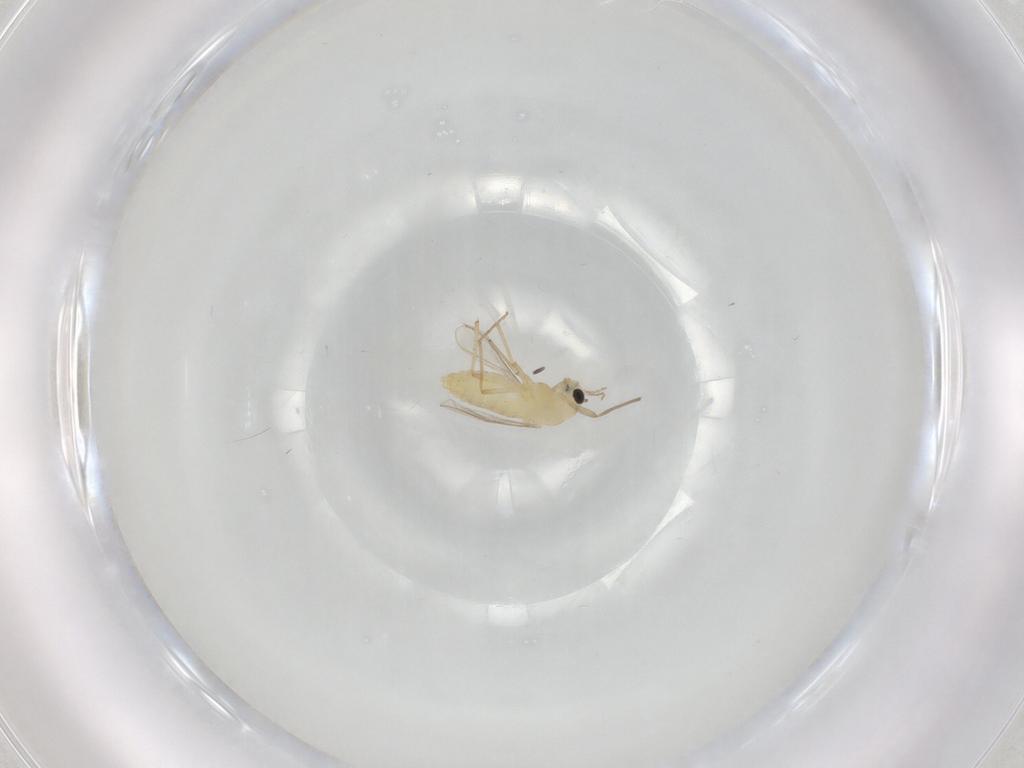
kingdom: Animalia
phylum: Arthropoda
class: Insecta
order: Diptera
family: Chironomidae
